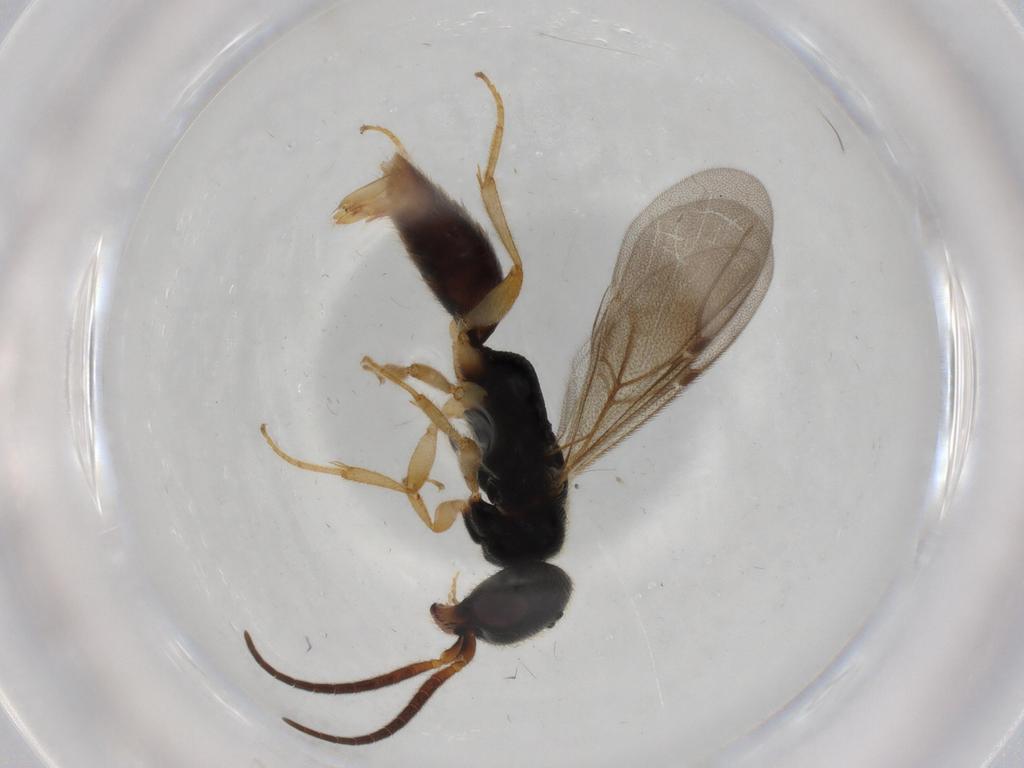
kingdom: Animalia
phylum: Arthropoda
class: Insecta
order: Hymenoptera
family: Bethylidae
